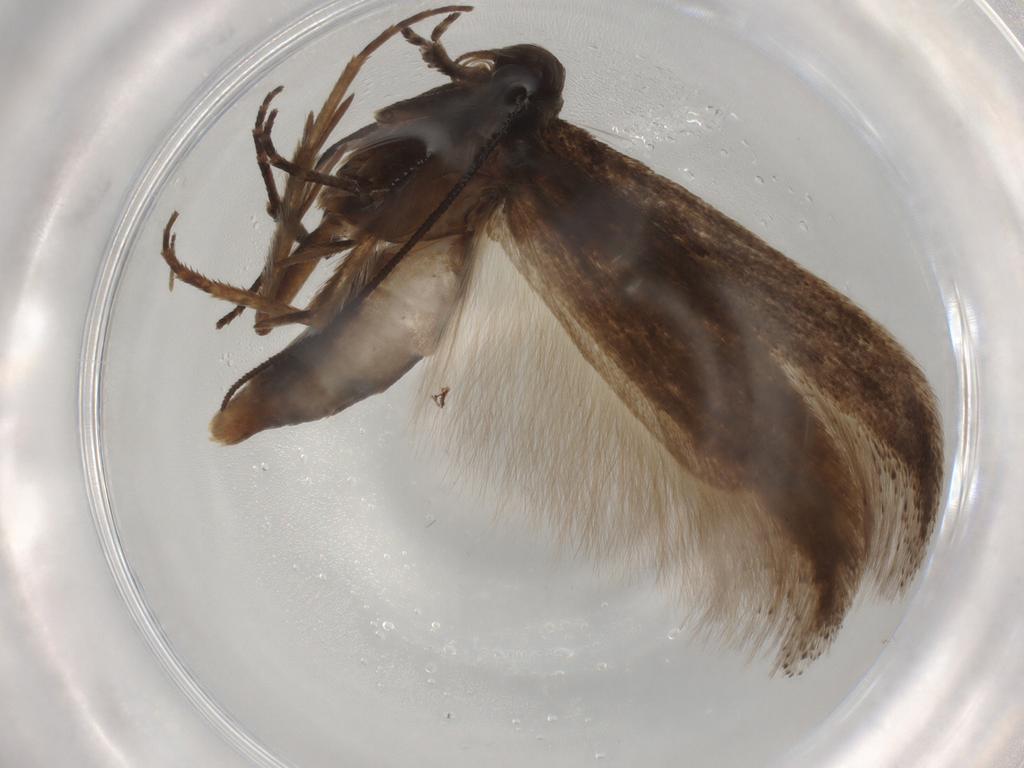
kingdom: Animalia
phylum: Arthropoda
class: Insecta
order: Lepidoptera
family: Gelechiidae
